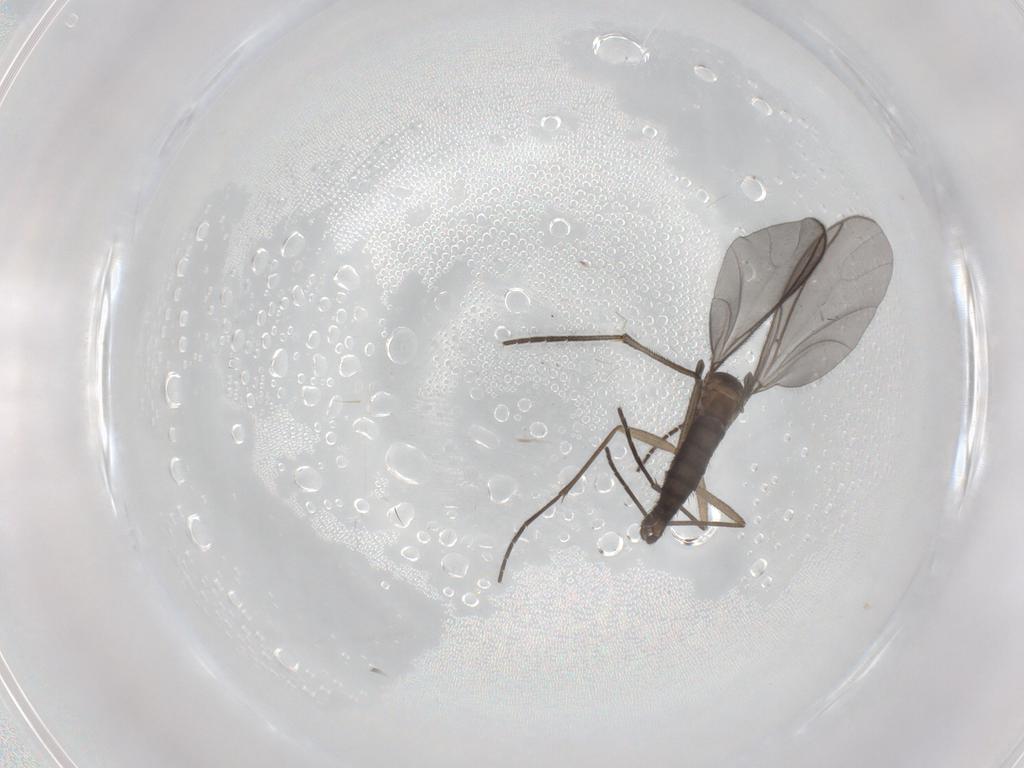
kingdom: Animalia
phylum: Arthropoda
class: Insecta
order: Diptera
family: Sciaridae
